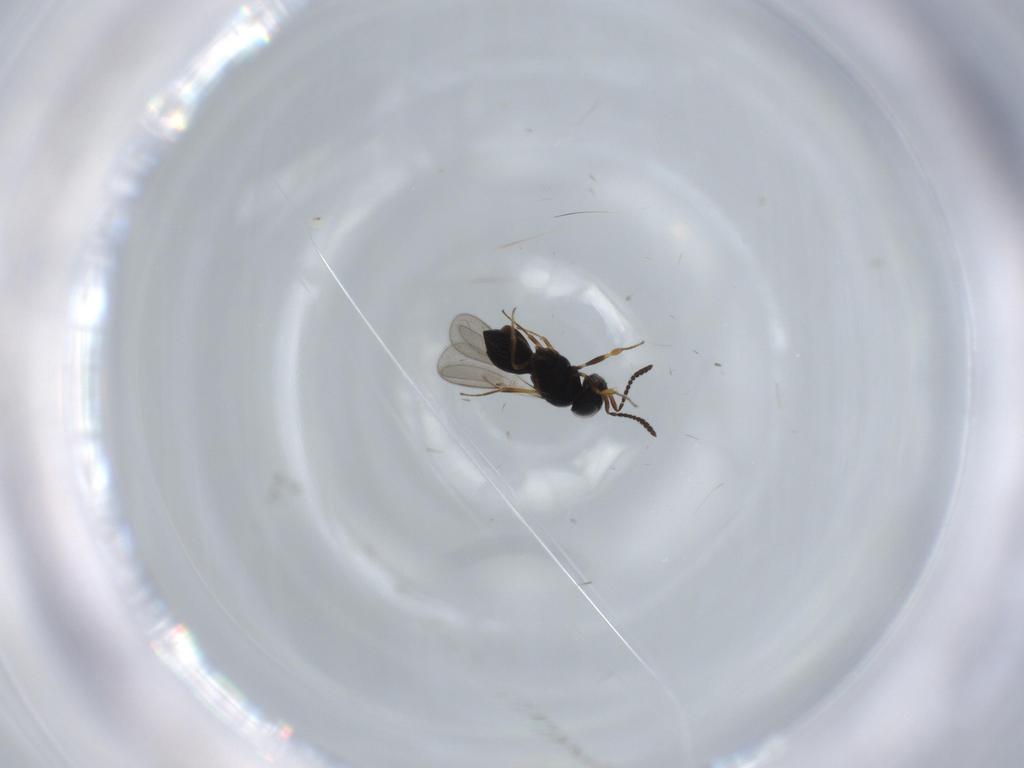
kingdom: Animalia
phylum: Arthropoda
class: Insecta
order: Hymenoptera
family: Scelionidae
